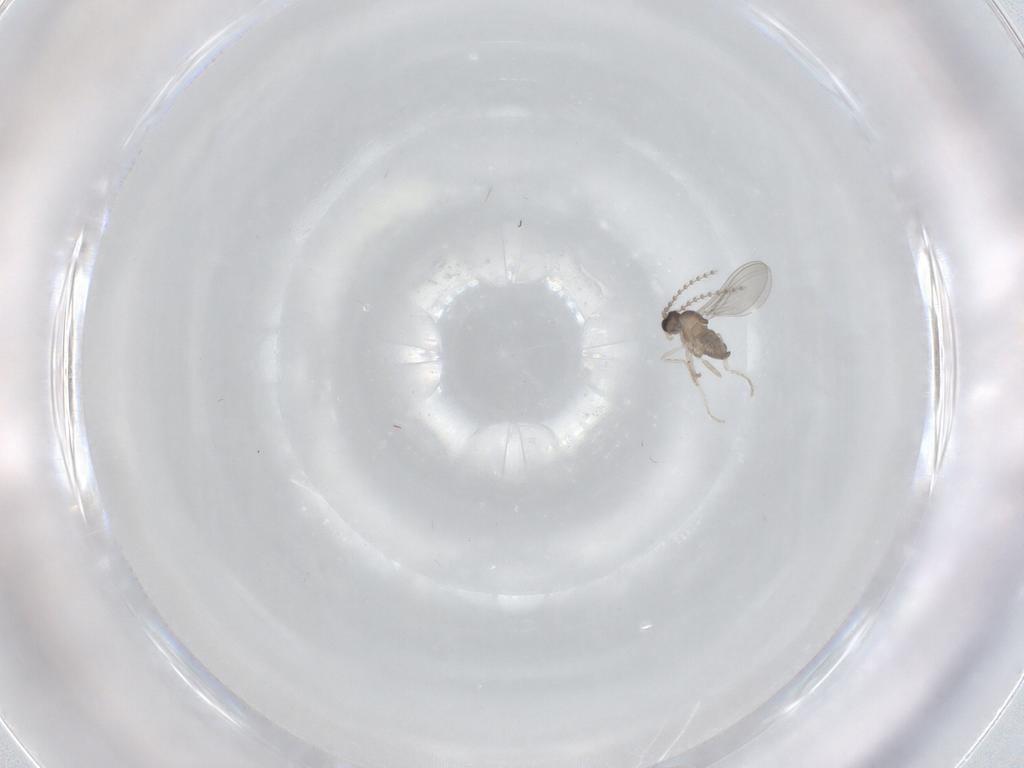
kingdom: Animalia
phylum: Arthropoda
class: Insecta
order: Diptera
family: Cecidomyiidae
